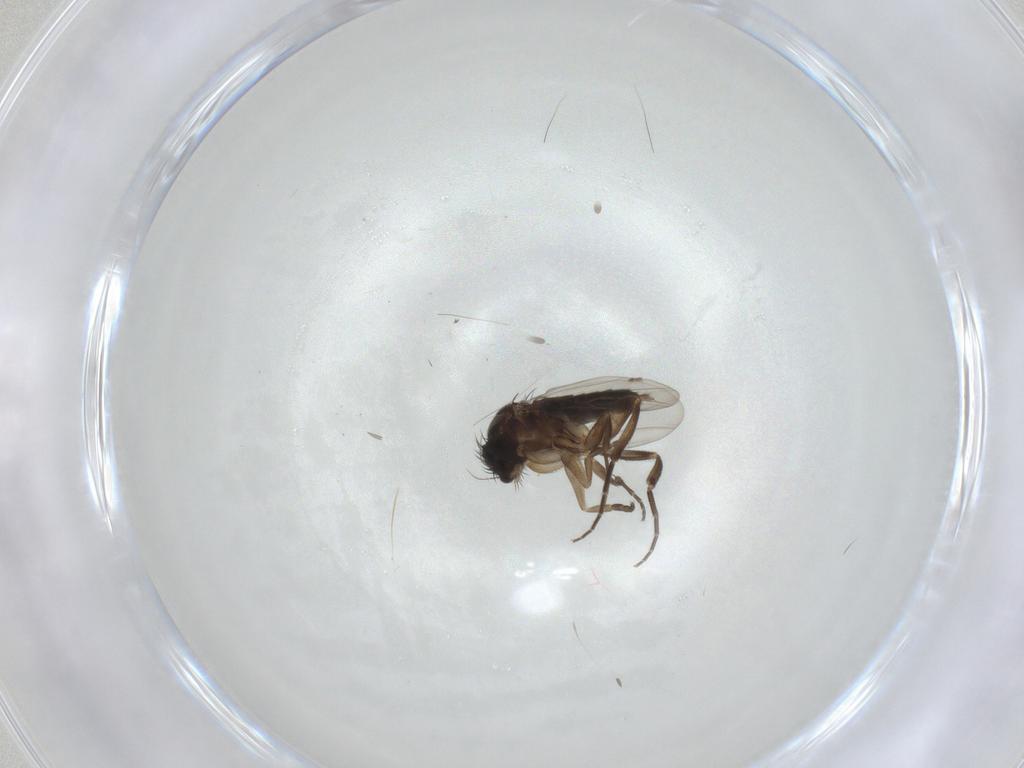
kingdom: Animalia
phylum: Arthropoda
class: Insecta
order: Diptera
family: Phoridae
